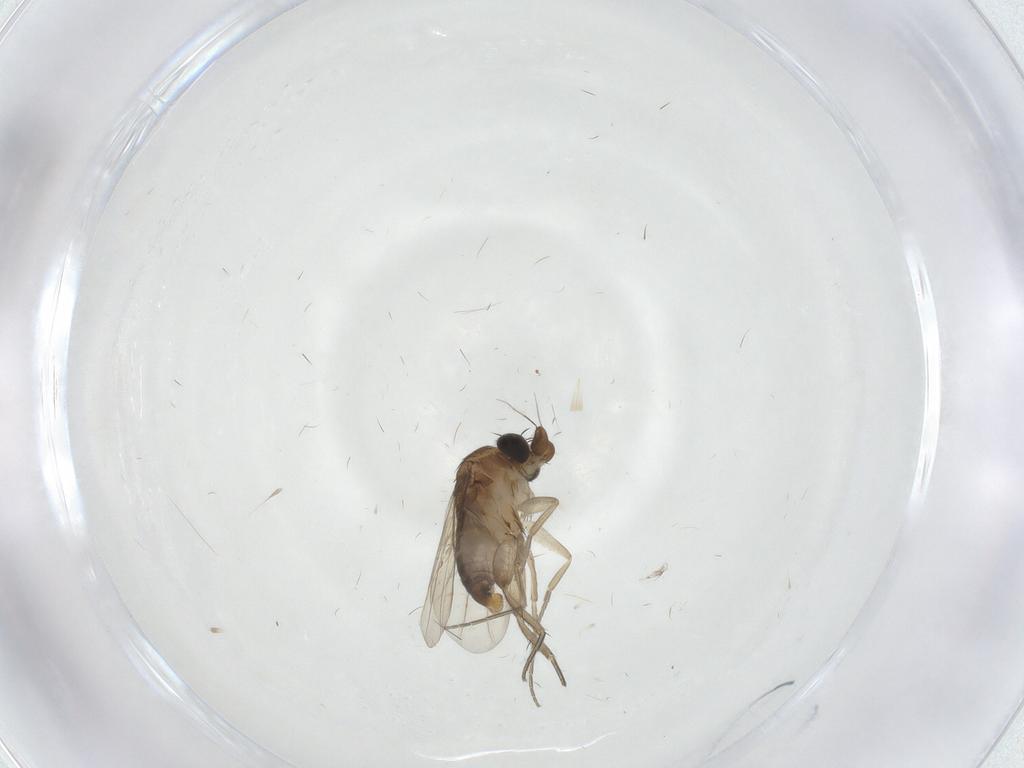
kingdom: Animalia
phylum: Arthropoda
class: Insecta
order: Diptera
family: Phoridae
